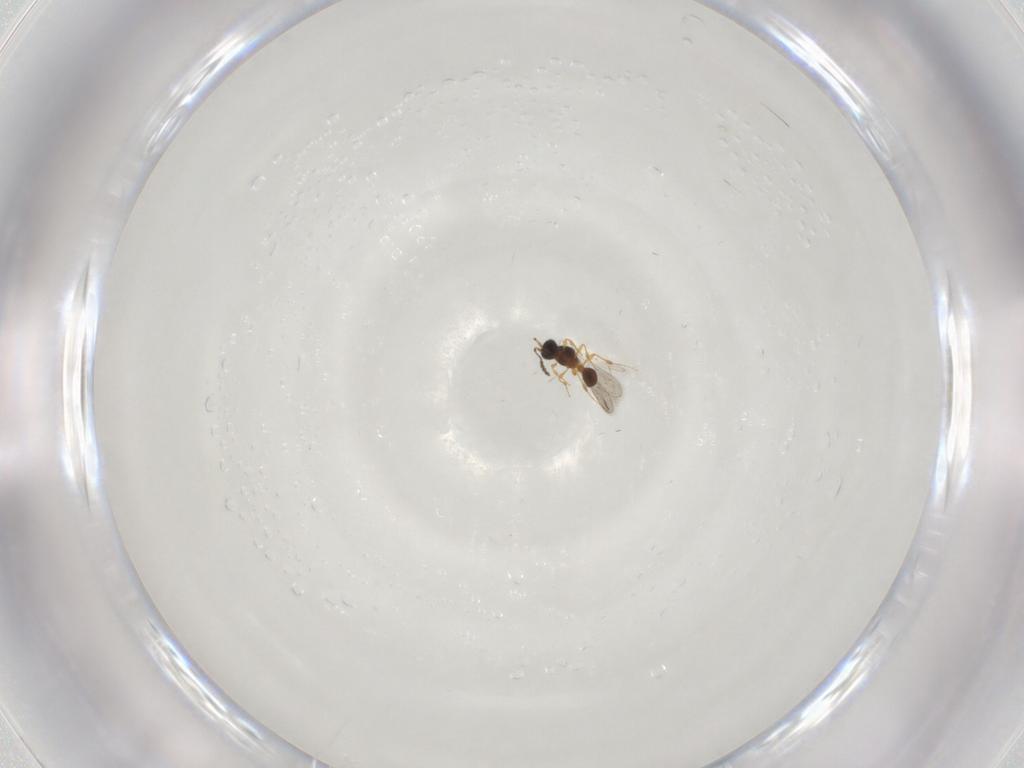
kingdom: Animalia
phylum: Arthropoda
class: Insecta
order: Hymenoptera
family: Platygastridae
